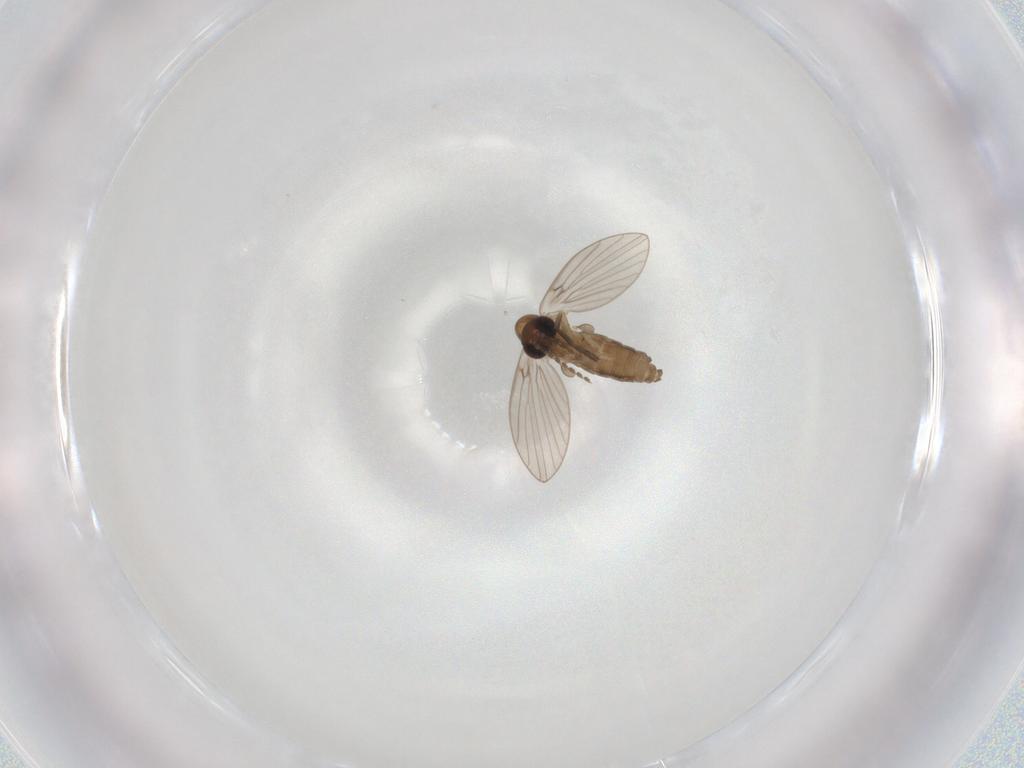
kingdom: Animalia
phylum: Arthropoda
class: Insecta
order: Diptera
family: Psychodidae
